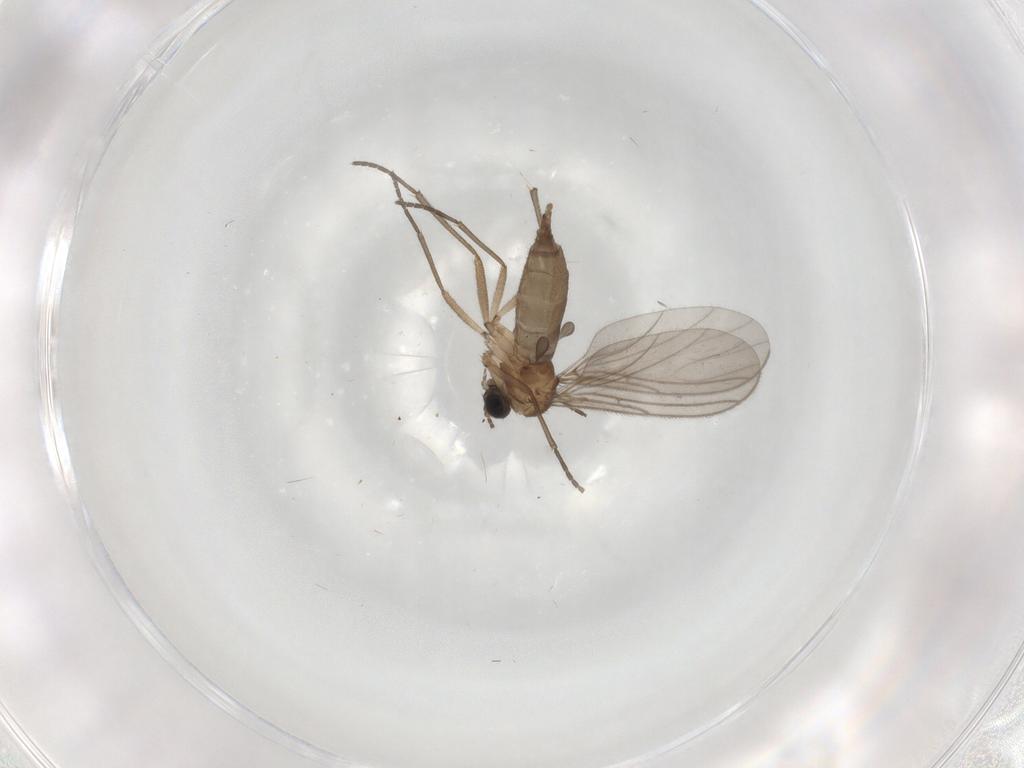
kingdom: Animalia
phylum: Arthropoda
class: Insecta
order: Diptera
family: Sciaridae
